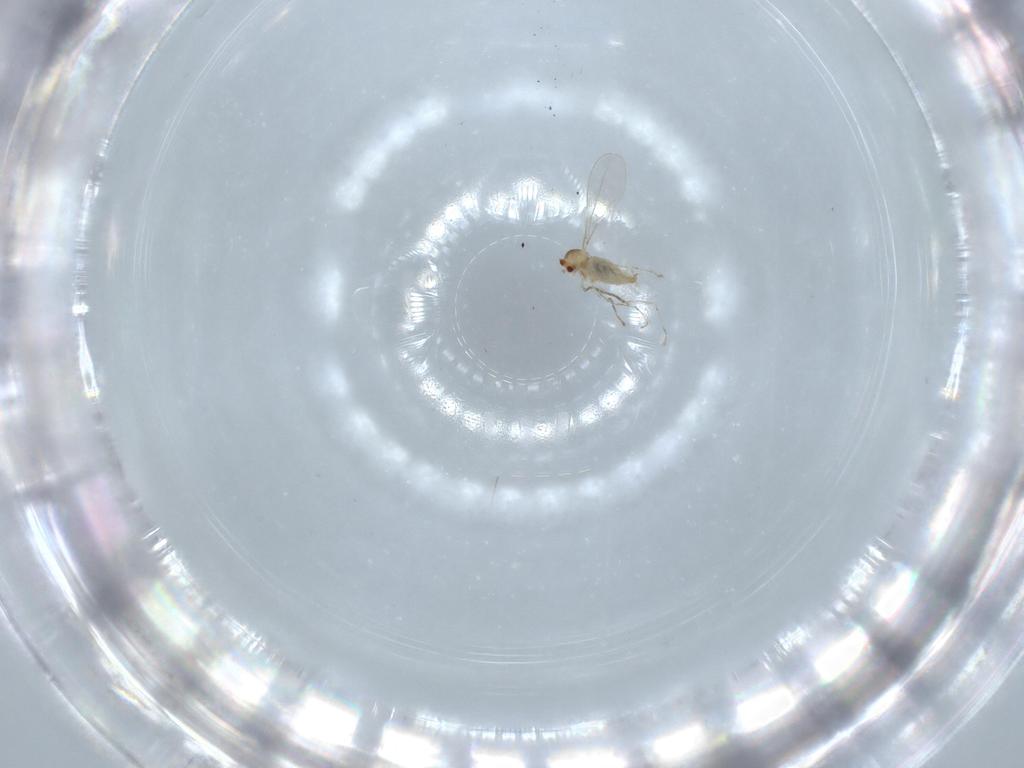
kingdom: Animalia
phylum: Arthropoda
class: Insecta
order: Diptera
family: Cecidomyiidae
